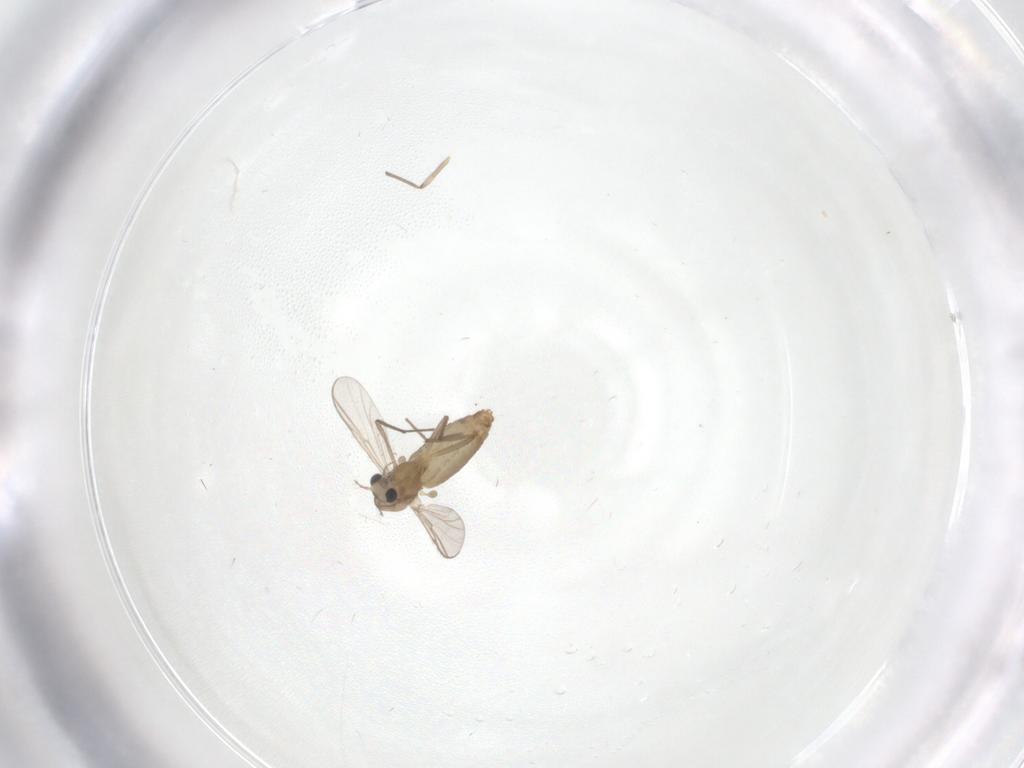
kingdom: Animalia
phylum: Arthropoda
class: Insecta
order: Diptera
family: Chironomidae
